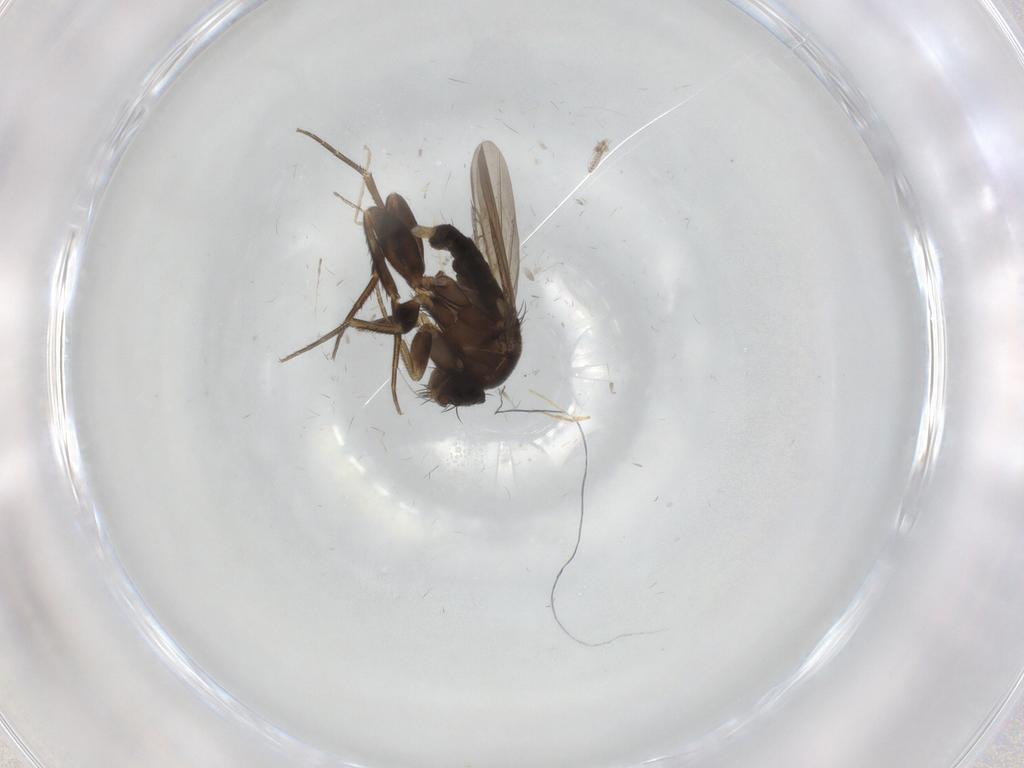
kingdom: Animalia
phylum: Arthropoda
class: Insecta
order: Diptera
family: Phoridae
